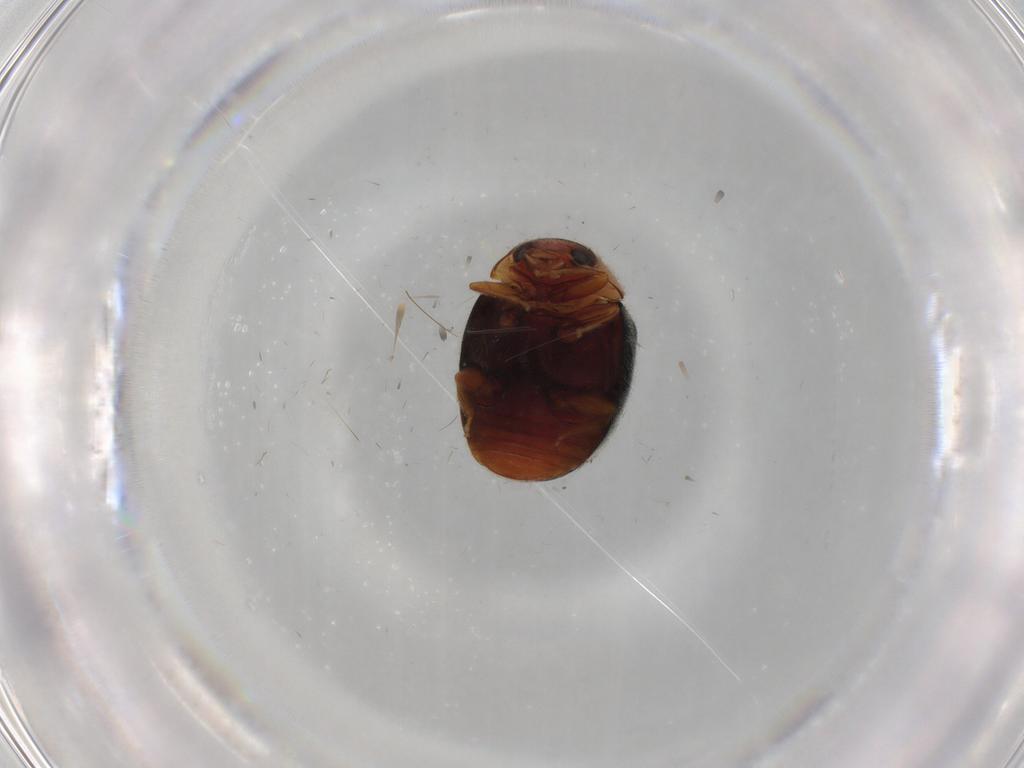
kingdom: Animalia
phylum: Arthropoda
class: Insecta
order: Coleoptera
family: Coccinellidae
